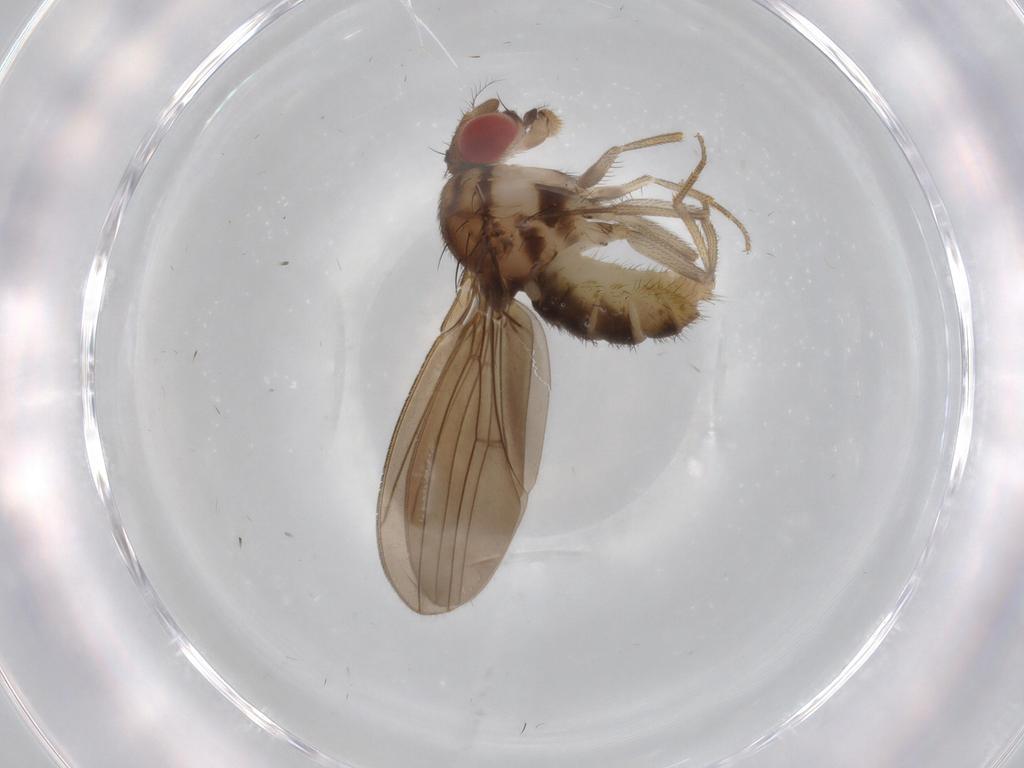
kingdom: Animalia
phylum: Arthropoda
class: Insecta
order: Diptera
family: Drosophilidae
